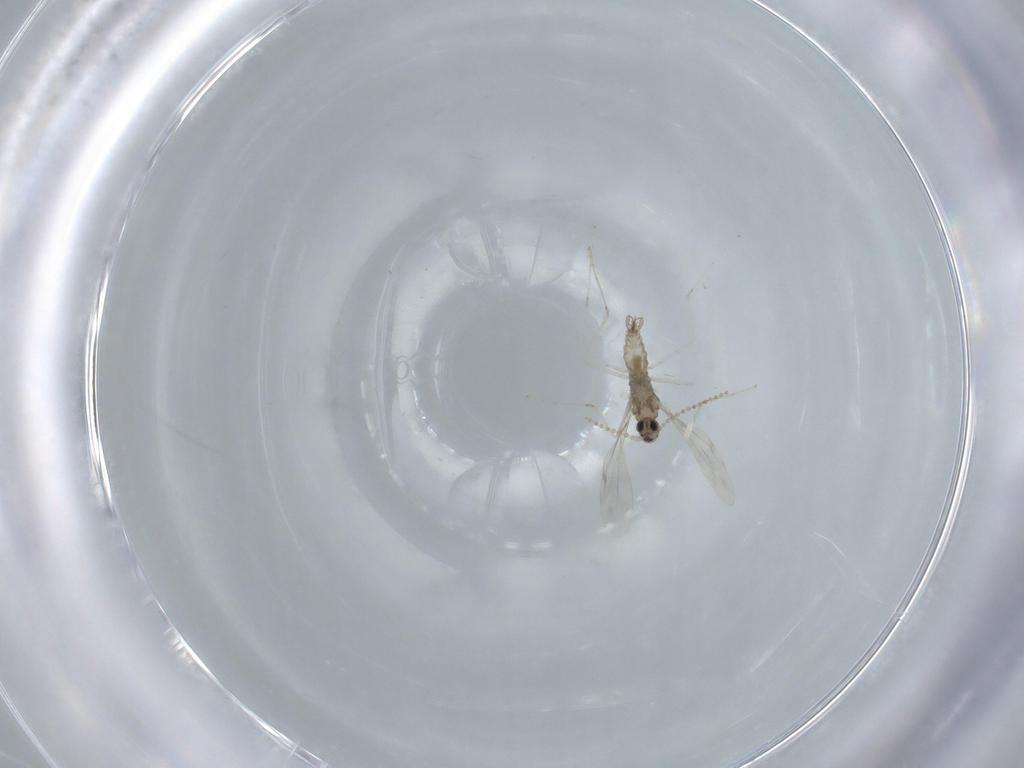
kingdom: Animalia
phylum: Arthropoda
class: Insecta
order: Diptera
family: Cecidomyiidae
